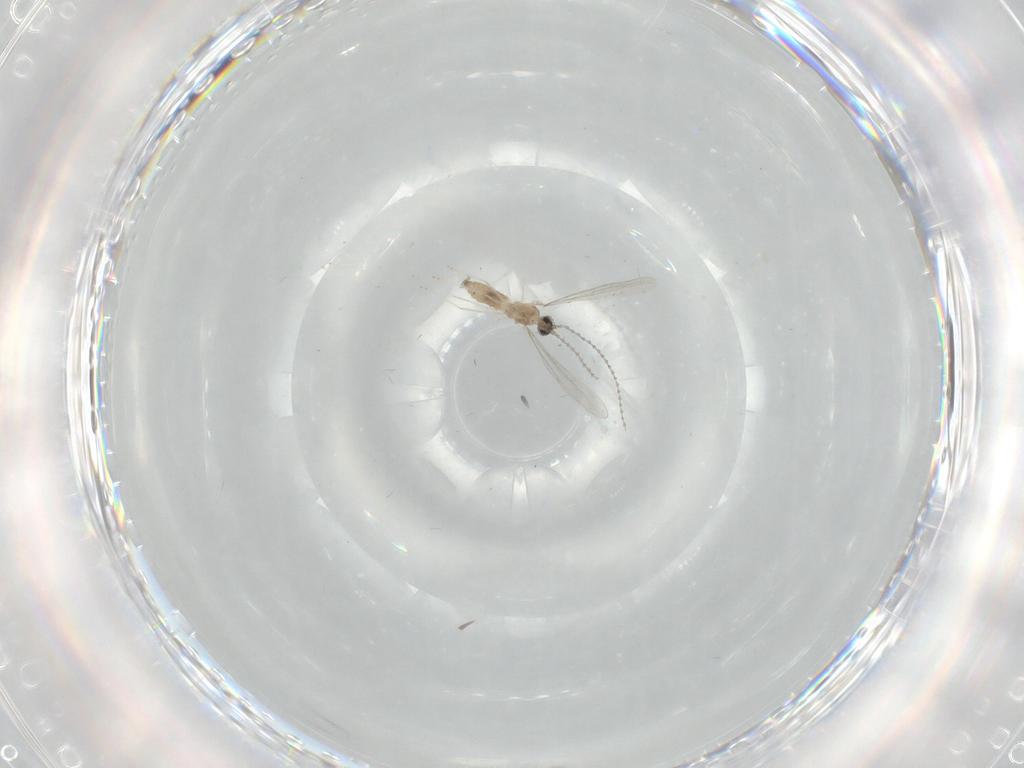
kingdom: Animalia
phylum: Arthropoda
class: Insecta
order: Diptera
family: Cecidomyiidae
